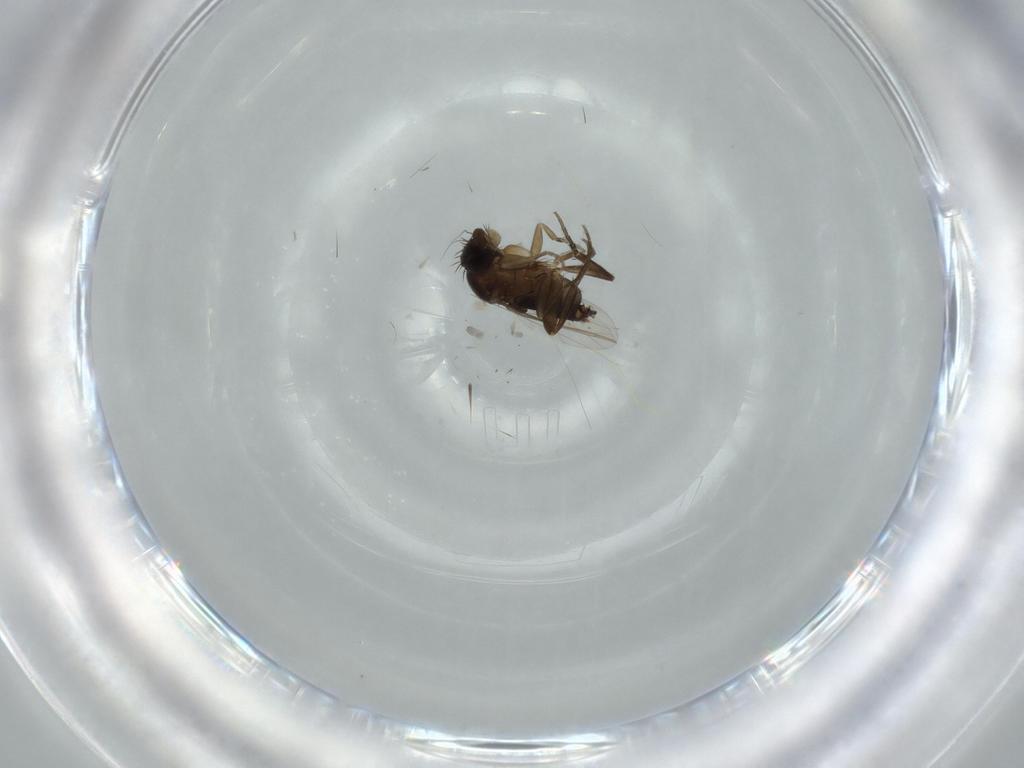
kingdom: Animalia
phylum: Arthropoda
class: Insecta
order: Diptera
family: Phoridae
